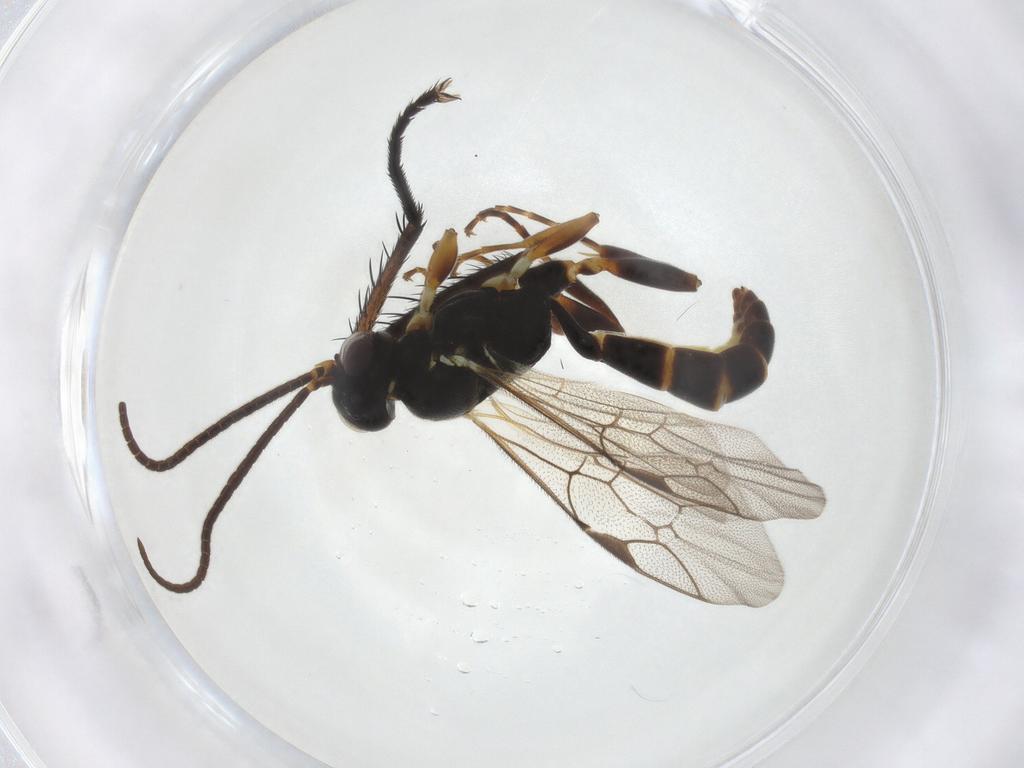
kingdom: Animalia
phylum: Arthropoda
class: Insecta
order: Hymenoptera
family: Ichneumonidae
